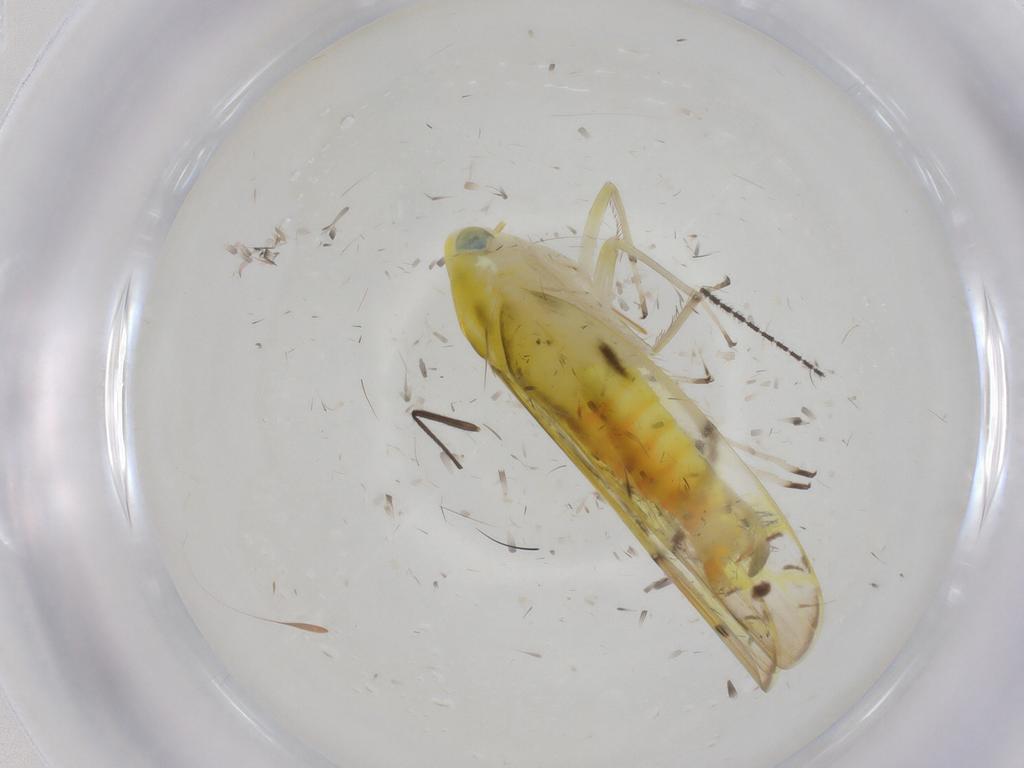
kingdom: Animalia
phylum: Arthropoda
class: Insecta
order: Hemiptera
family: Cicadellidae
